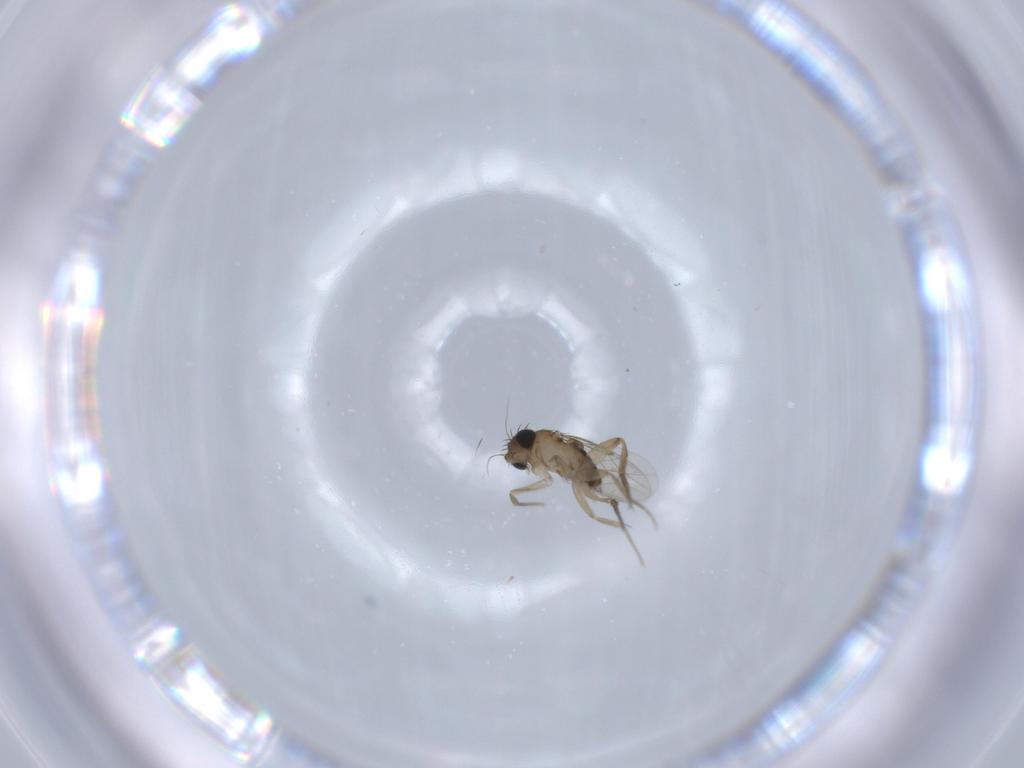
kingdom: Animalia
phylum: Arthropoda
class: Insecta
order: Diptera
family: Phoridae
